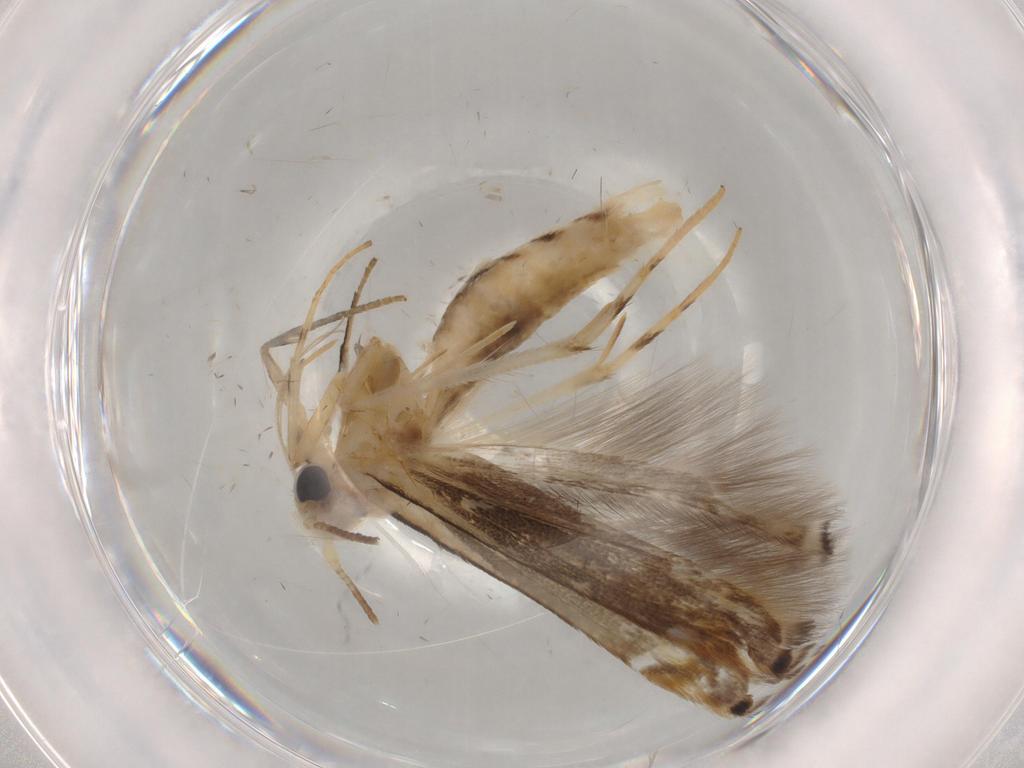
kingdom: Animalia
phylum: Arthropoda
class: Insecta
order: Lepidoptera
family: Gelechiidae
